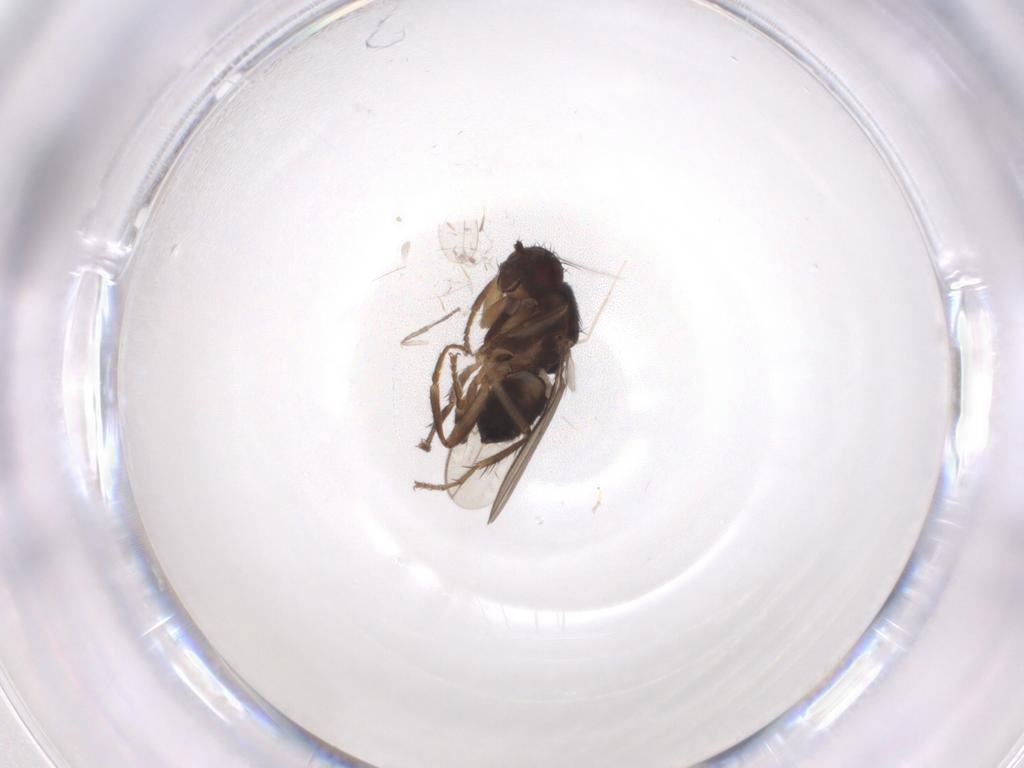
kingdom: Animalia
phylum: Arthropoda
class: Insecta
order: Diptera
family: Sphaeroceridae
